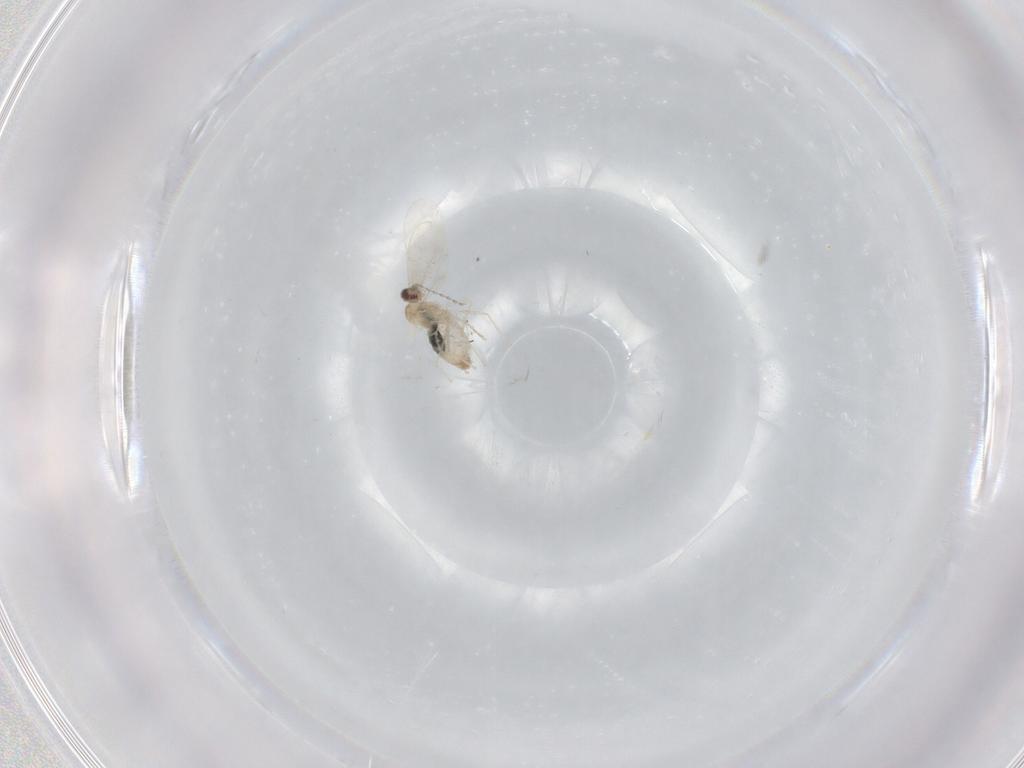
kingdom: Animalia
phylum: Arthropoda
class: Insecta
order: Diptera
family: Cecidomyiidae
